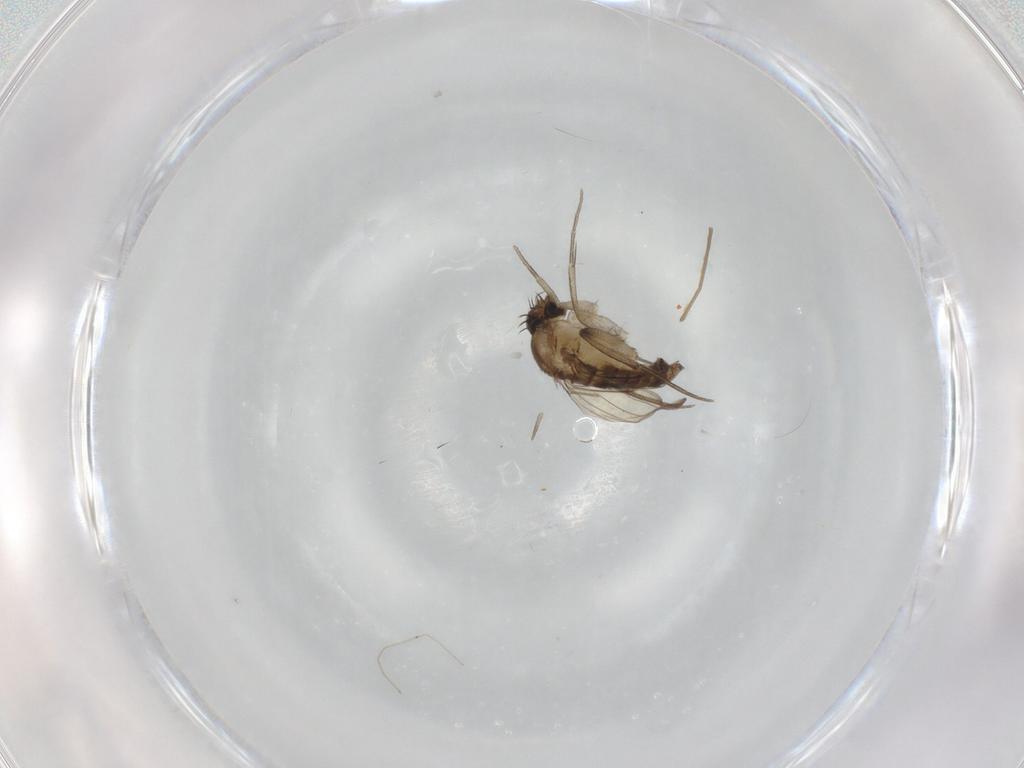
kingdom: Animalia
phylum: Arthropoda
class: Insecta
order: Diptera
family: Phoridae
